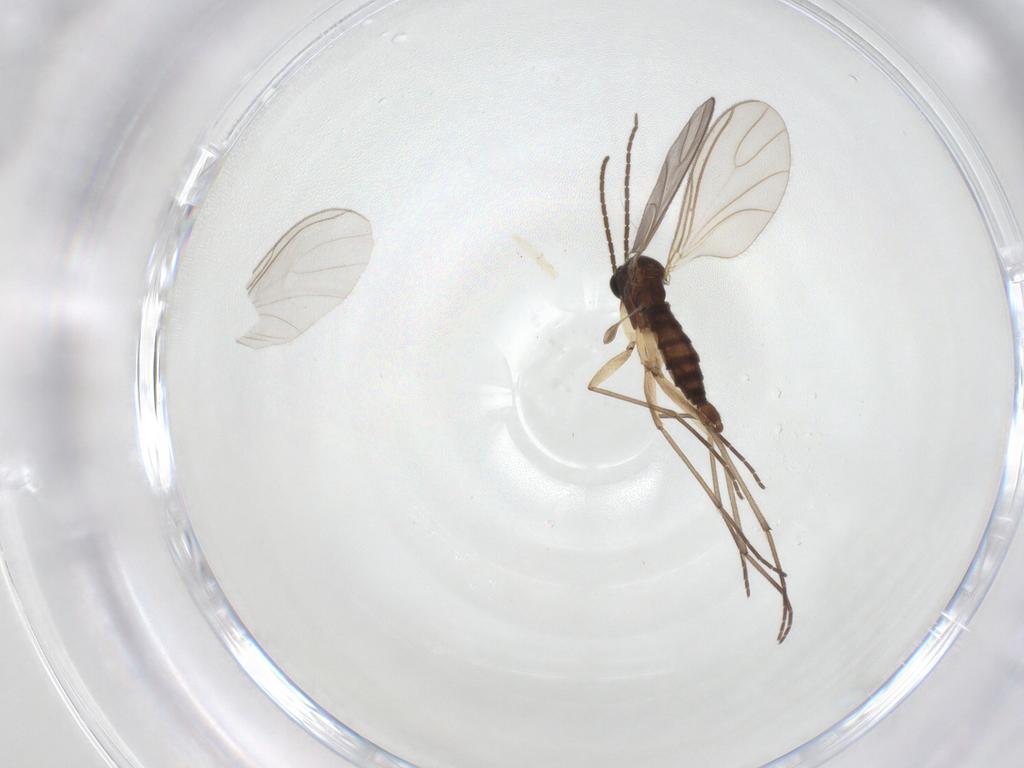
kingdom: Animalia
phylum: Arthropoda
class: Insecta
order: Diptera
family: Sciaridae
